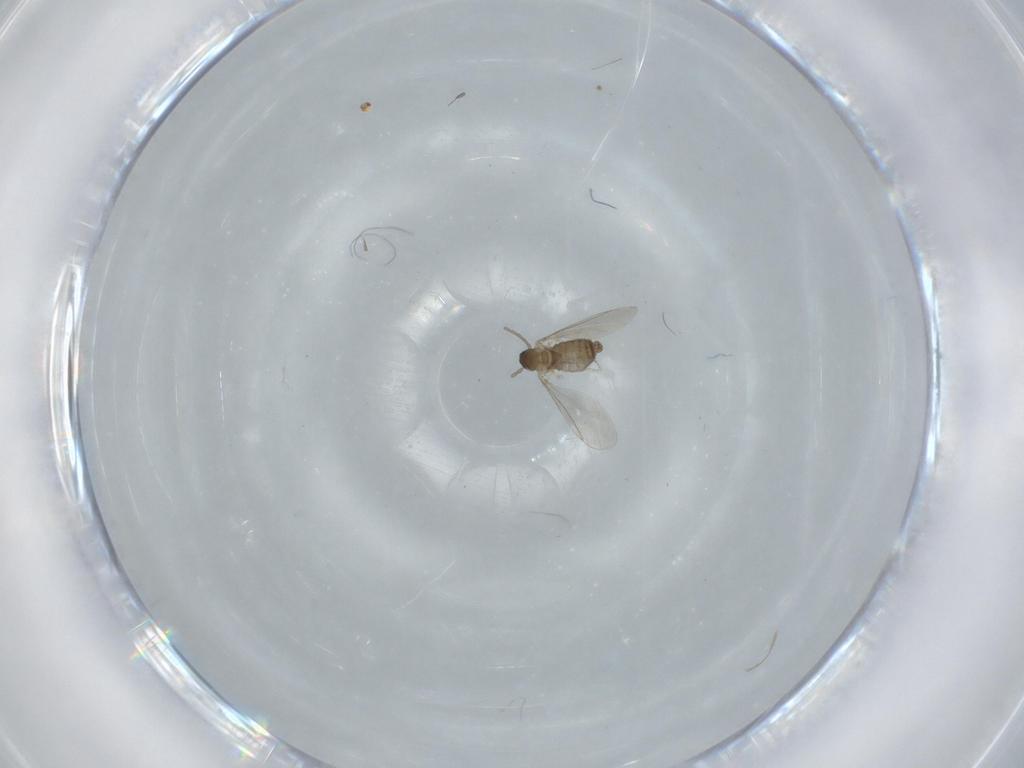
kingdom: Animalia
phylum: Arthropoda
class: Insecta
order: Diptera
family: Cecidomyiidae
